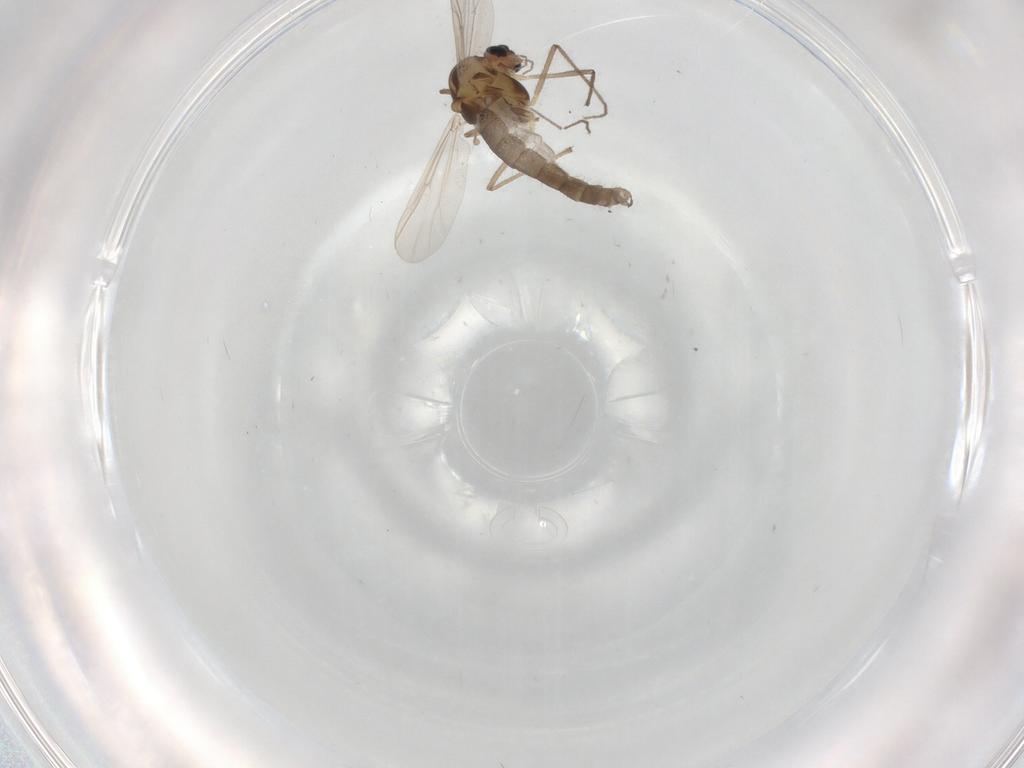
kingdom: Animalia
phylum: Arthropoda
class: Insecta
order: Diptera
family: Chironomidae
